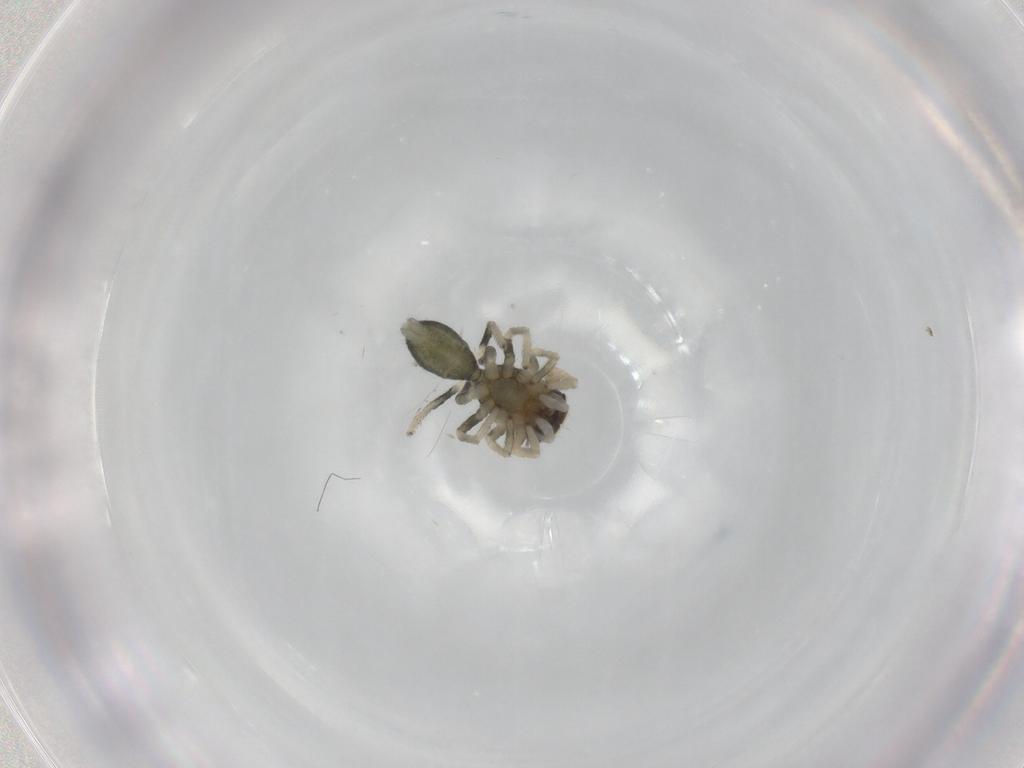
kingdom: Animalia
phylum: Arthropoda
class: Arachnida
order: Araneae
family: Salticidae
